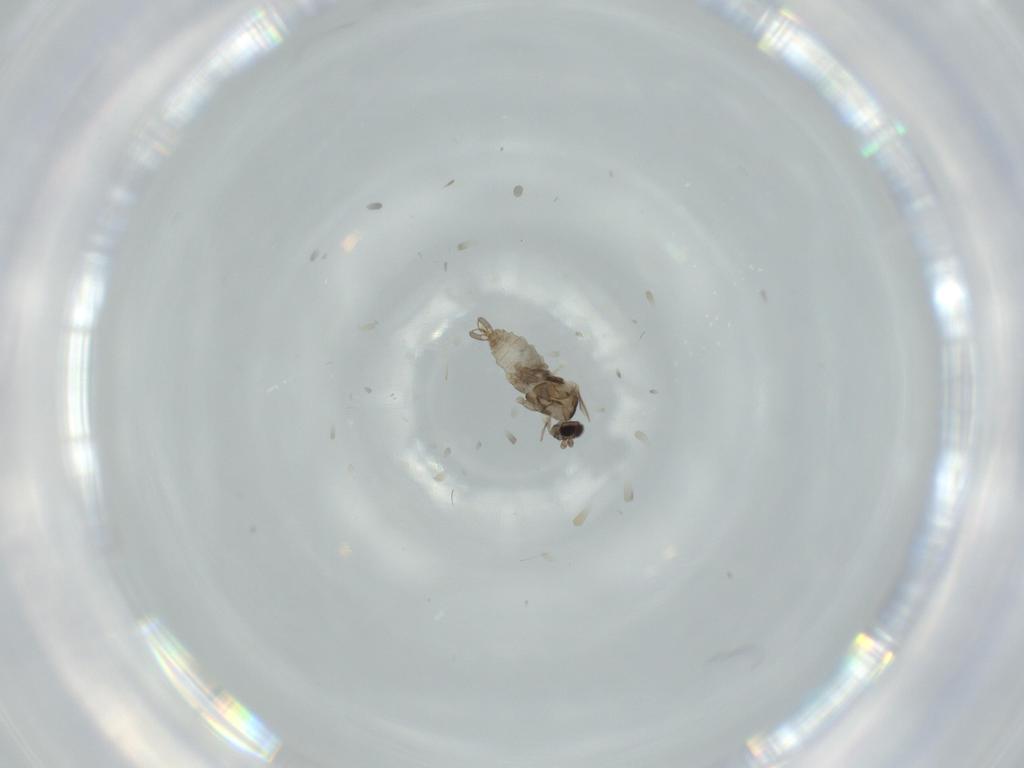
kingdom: Animalia
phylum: Arthropoda
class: Insecta
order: Diptera
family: Cecidomyiidae
